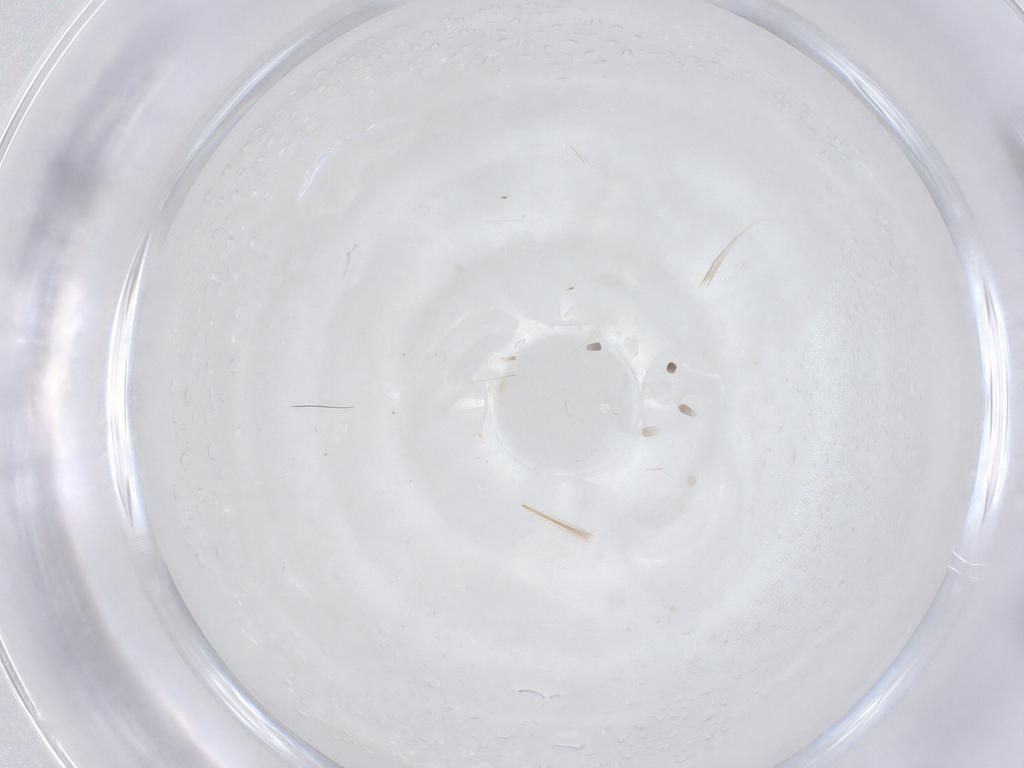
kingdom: Animalia
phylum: Arthropoda
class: Insecta
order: Diptera
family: Chironomidae
